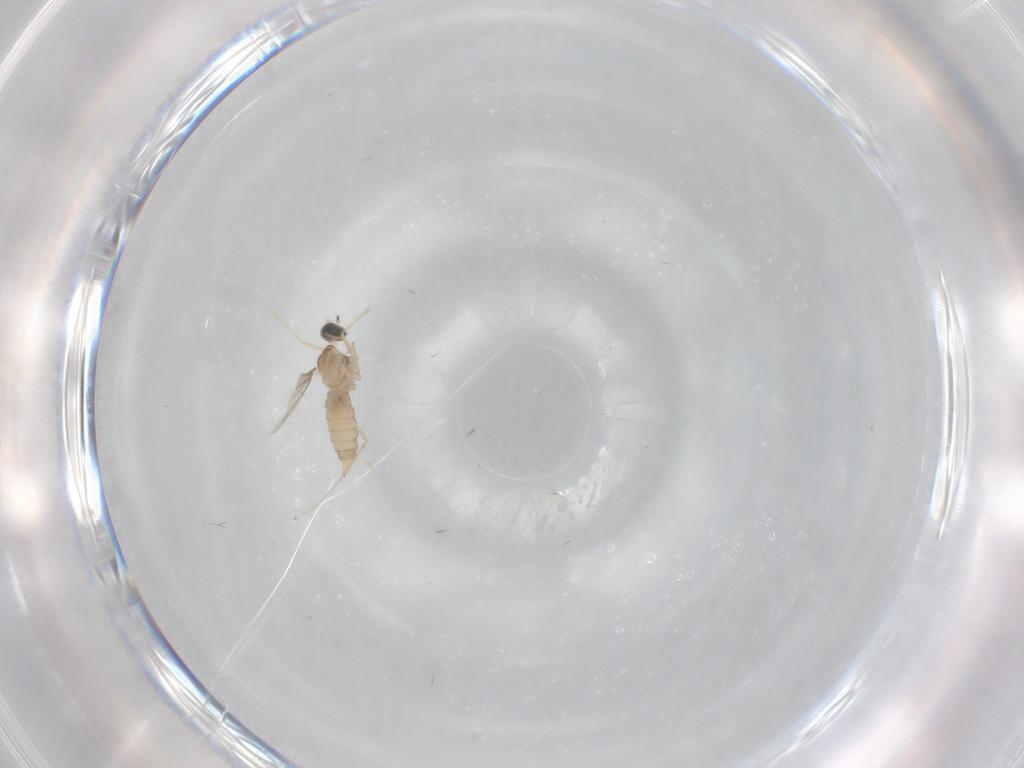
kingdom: Animalia
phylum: Arthropoda
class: Insecta
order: Diptera
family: Cecidomyiidae
